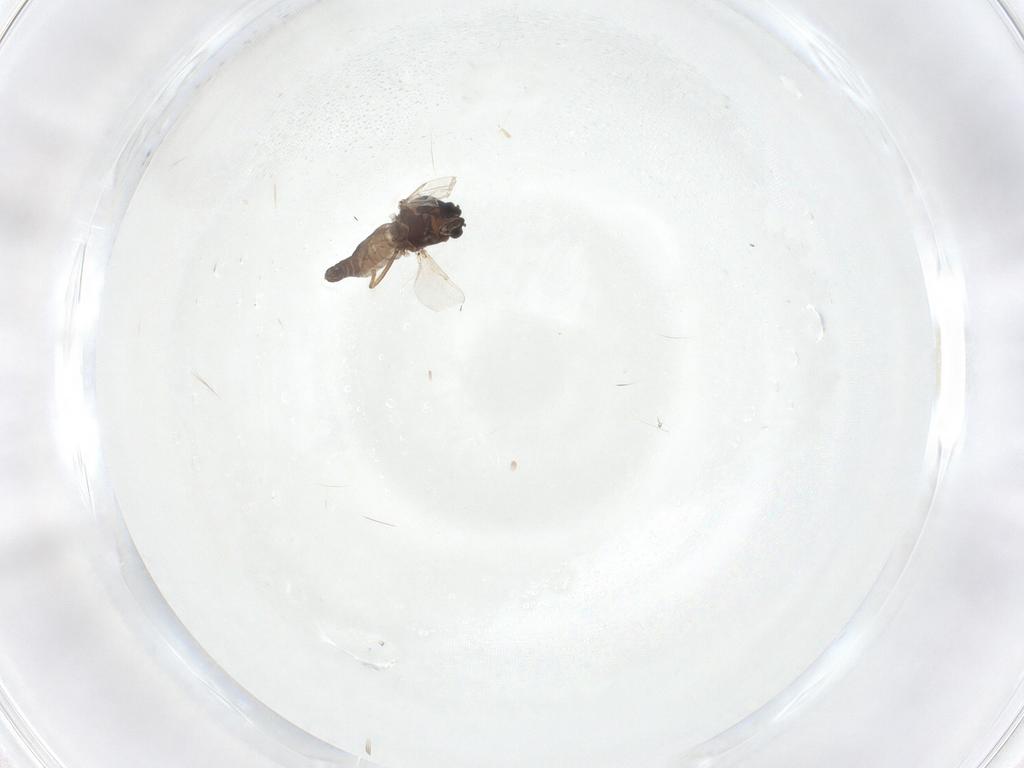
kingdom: Animalia
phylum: Arthropoda
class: Insecta
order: Diptera
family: Ceratopogonidae
